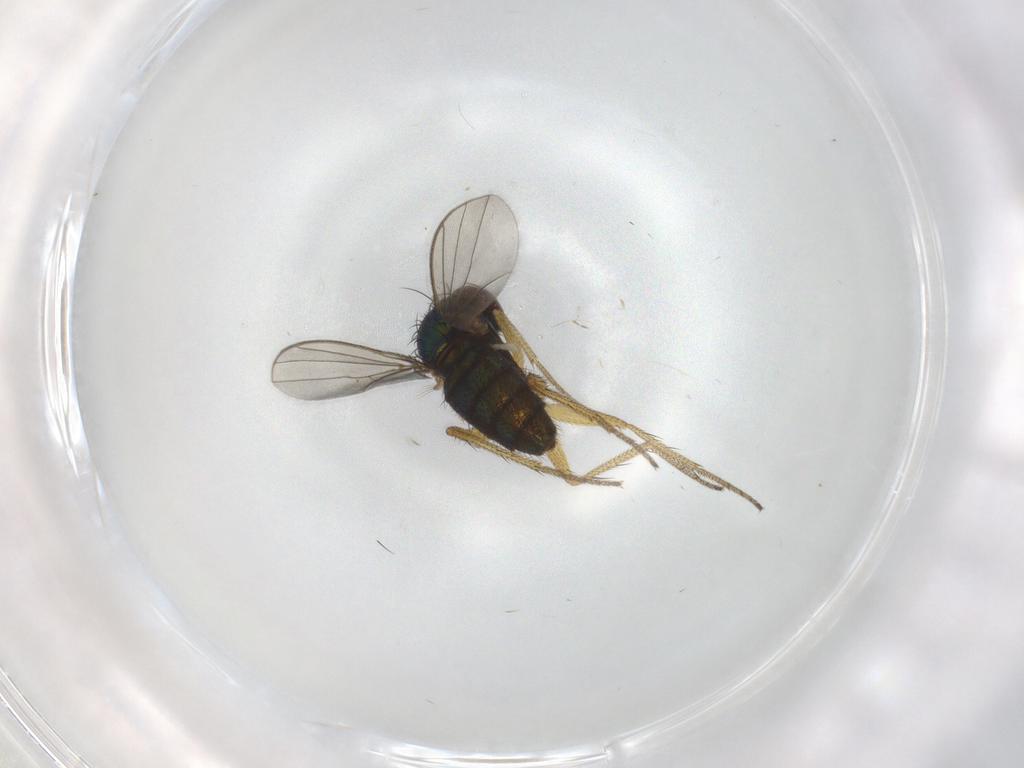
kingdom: Animalia
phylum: Arthropoda
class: Insecta
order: Diptera
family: Dolichopodidae
